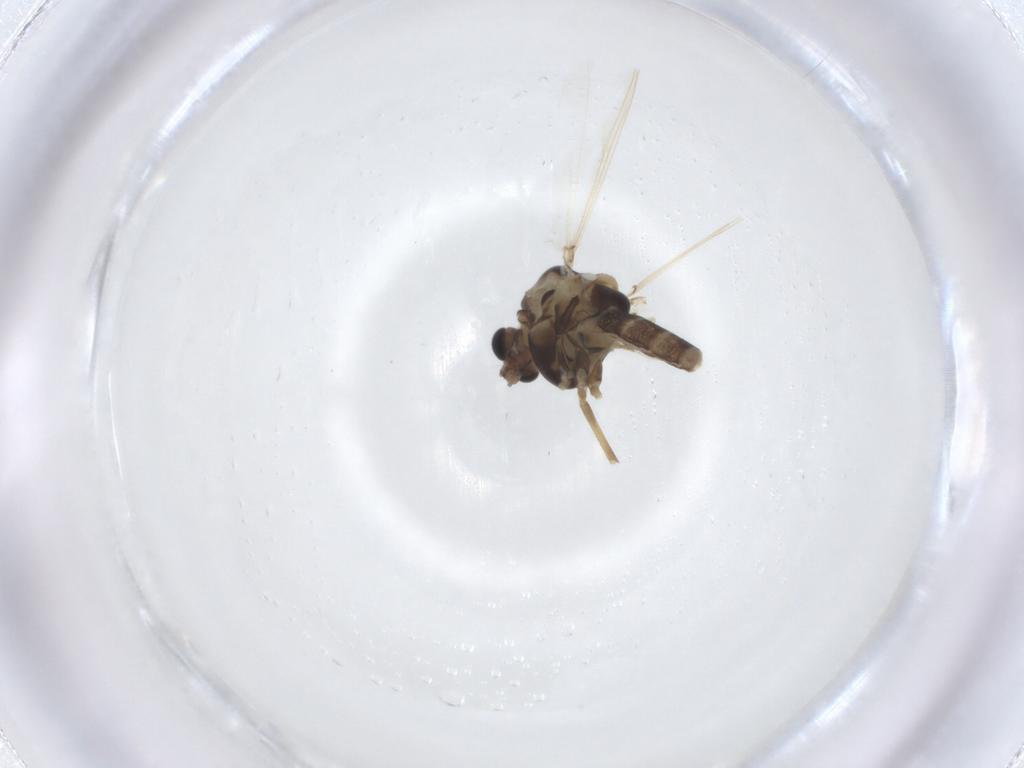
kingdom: Animalia
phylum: Arthropoda
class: Insecta
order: Diptera
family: Chironomidae
